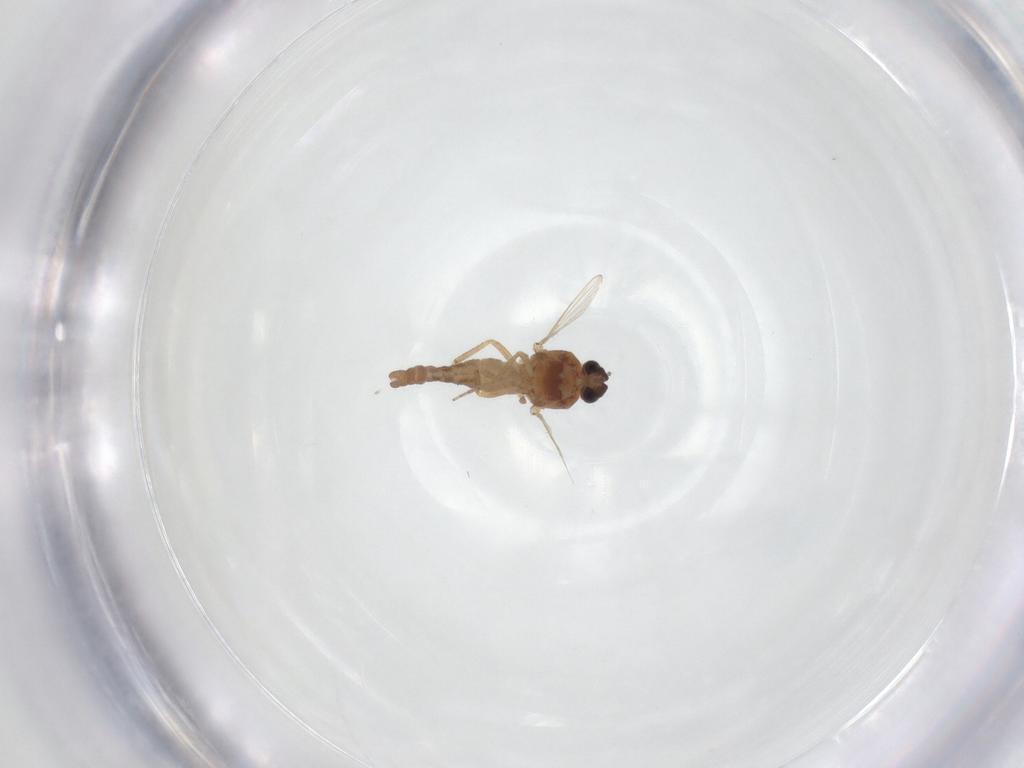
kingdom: Animalia
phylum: Arthropoda
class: Insecta
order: Diptera
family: Ceratopogonidae
